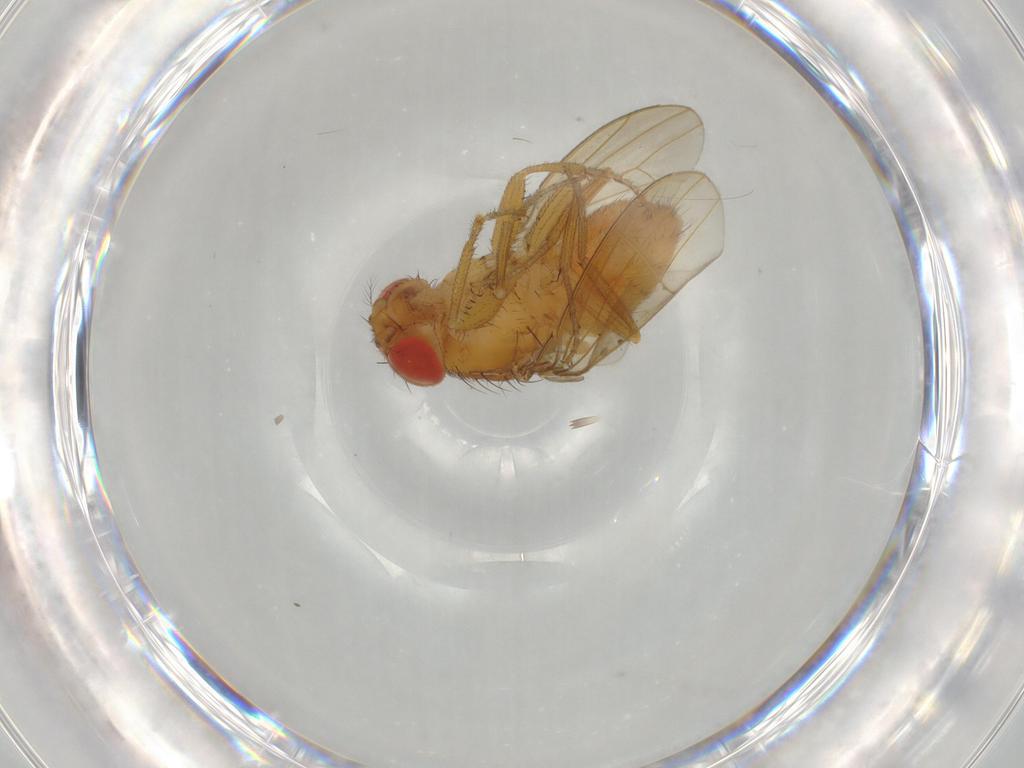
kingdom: Animalia
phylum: Arthropoda
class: Insecta
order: Diptera
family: Drosophilidae
